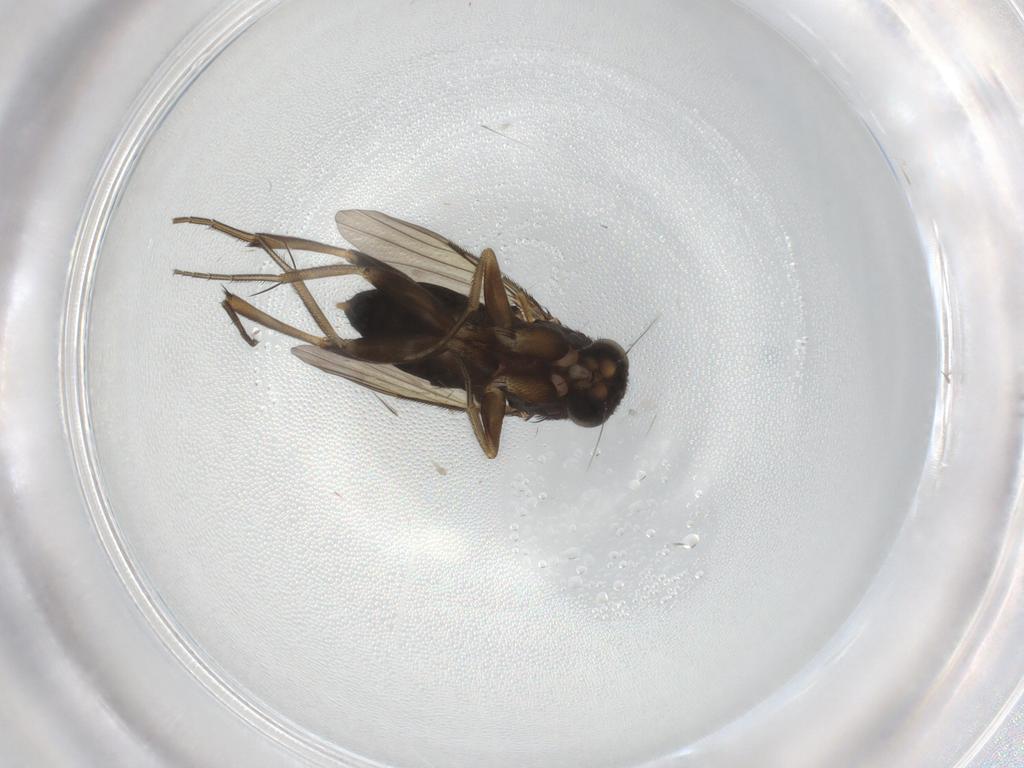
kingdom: Animalia
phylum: Arthropoda
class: Insecta
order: Diptera
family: Phoridae
